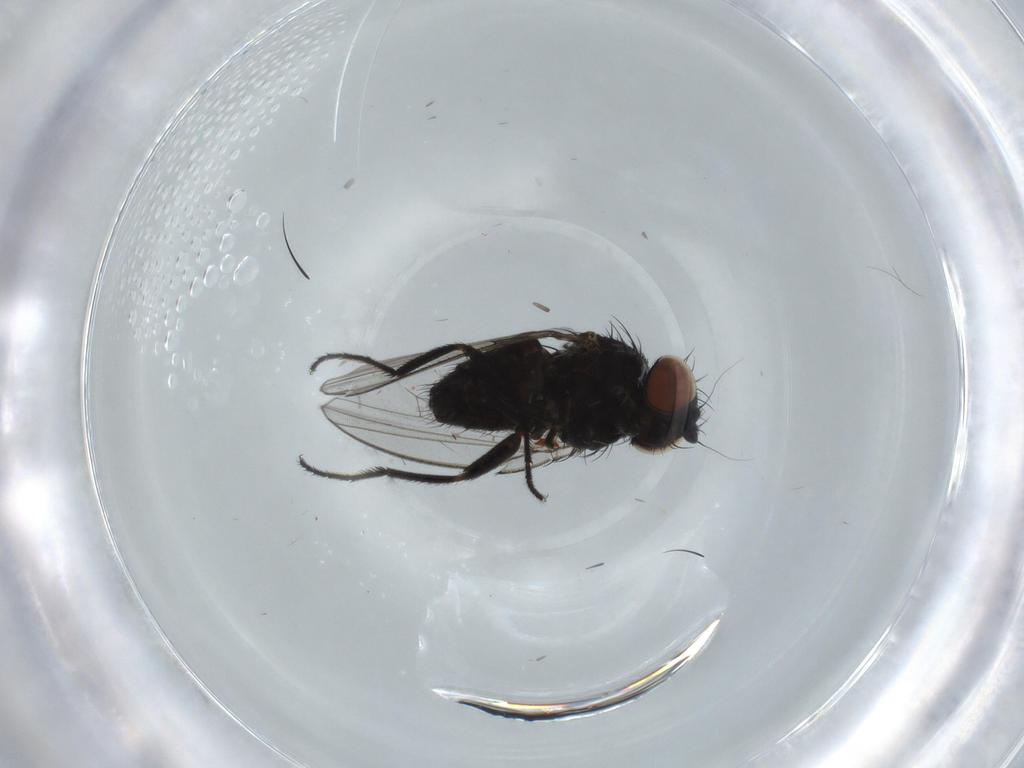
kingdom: Animalia
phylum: Arthropoda
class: Insecta
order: Diptera
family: Milichiidae
